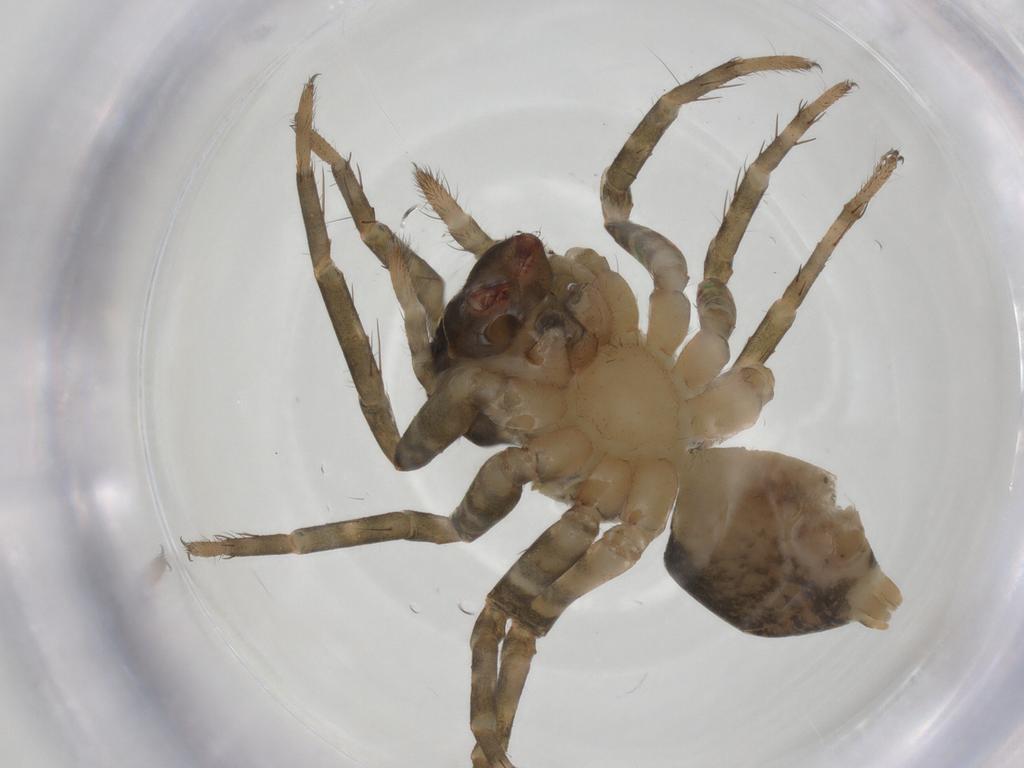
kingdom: Animalia
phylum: Arthropoda
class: Arachnida
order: Araneae
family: Lycosidae
